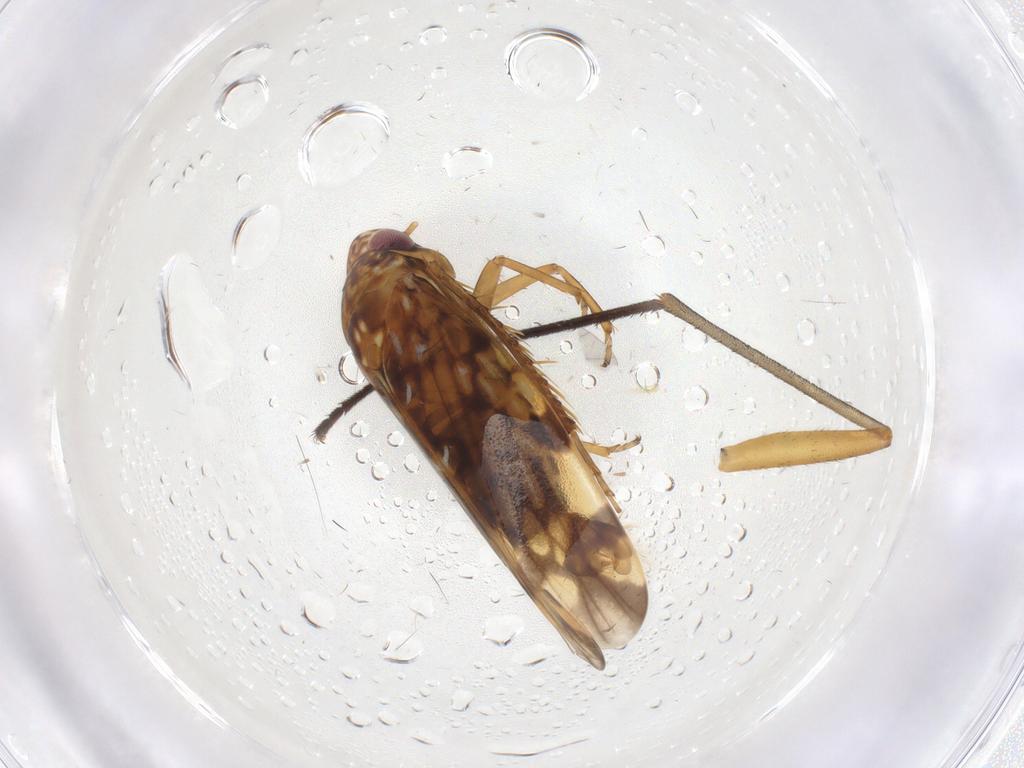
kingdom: Animalia
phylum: Arthropoda
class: Insecta
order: Hemiptera
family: Cicadellidae
